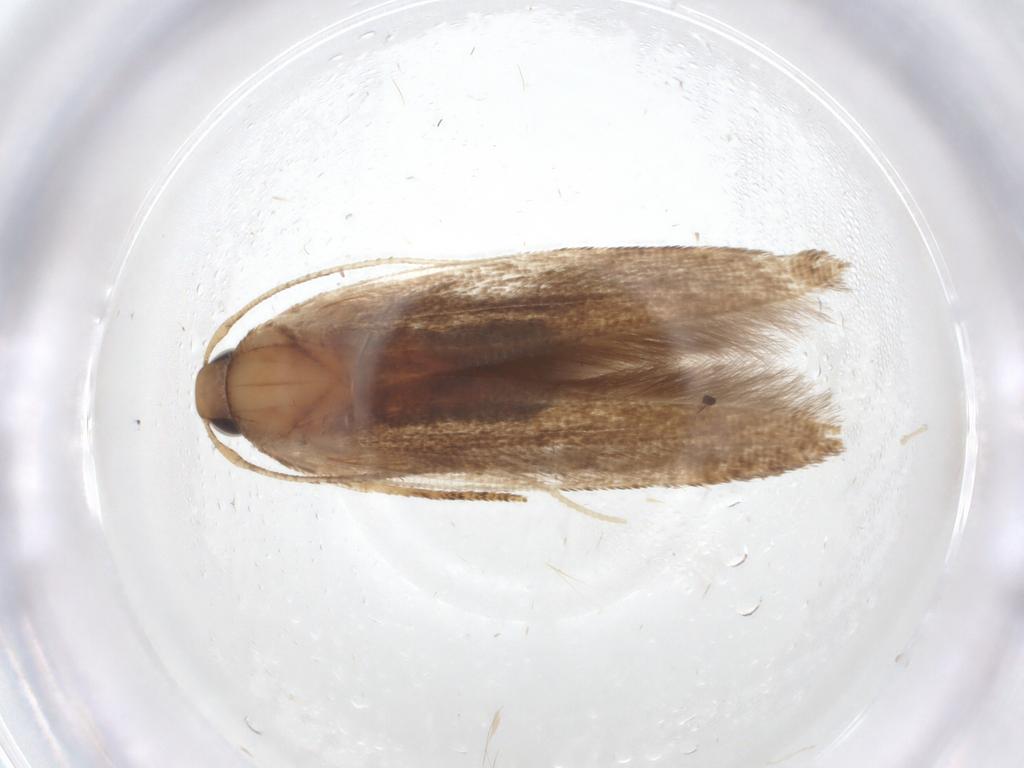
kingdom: Animalia
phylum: Arthropoda
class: Insecta
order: Lepidoptera
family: Cosmopterigidae
